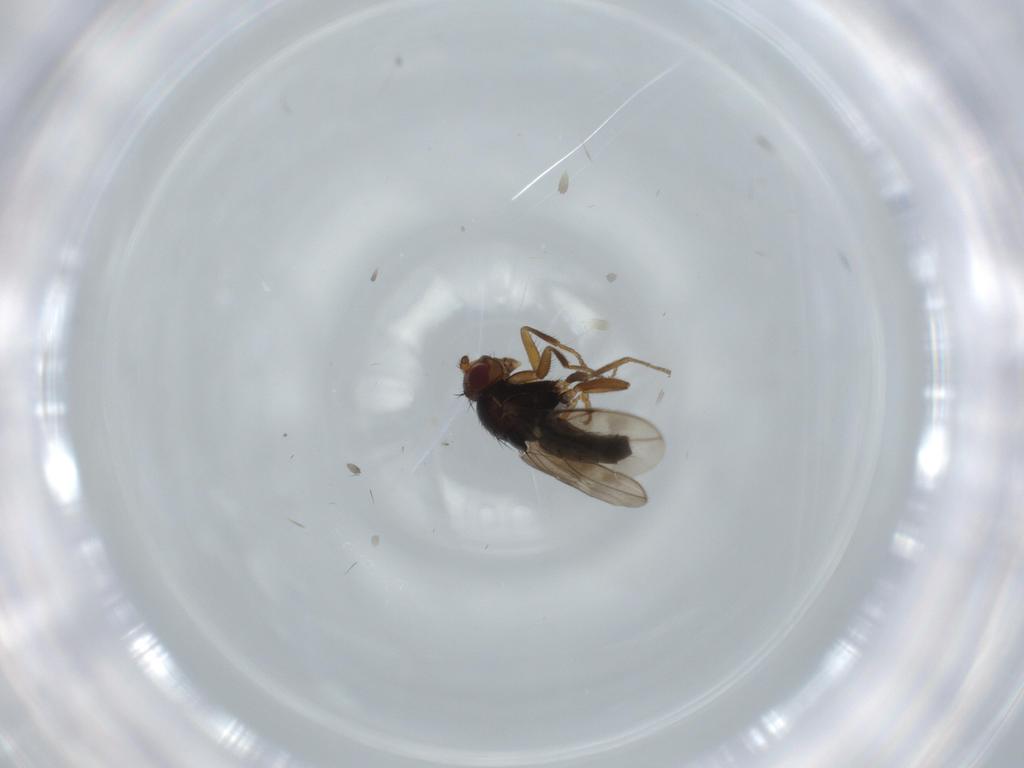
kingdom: Animalia
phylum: Arthropoda
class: Insecta
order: Diptera
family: Sphaeroceridae
